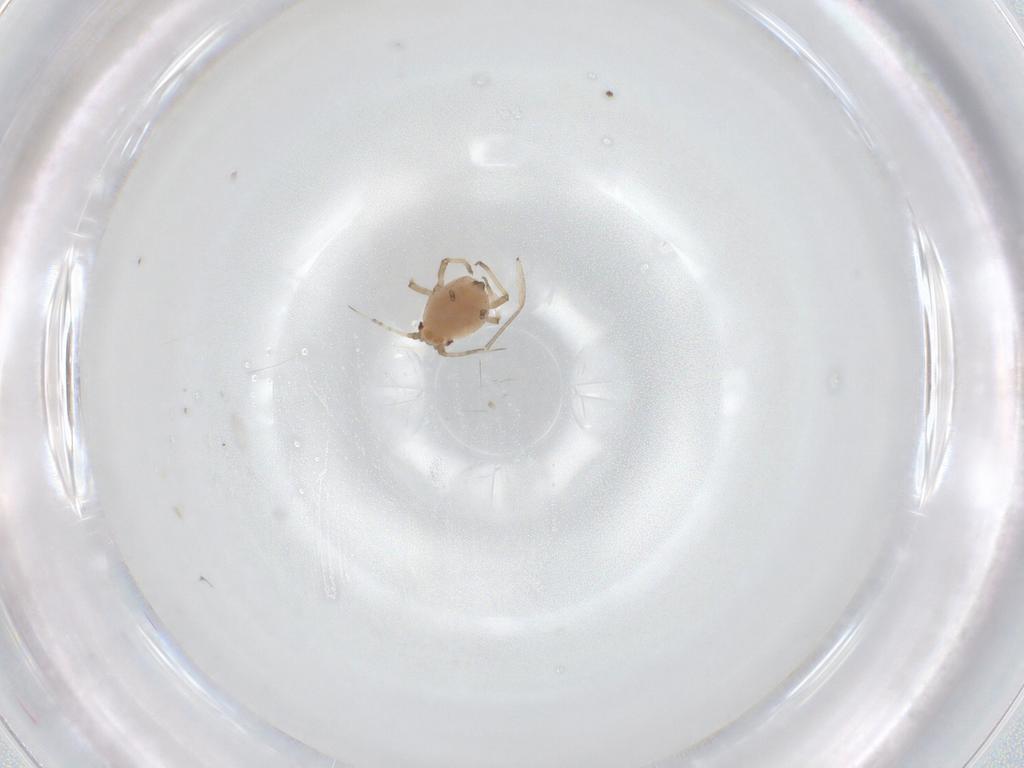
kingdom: Animalia
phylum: Arthropoda
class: Insecta
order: Hemiptera
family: Aphididae
